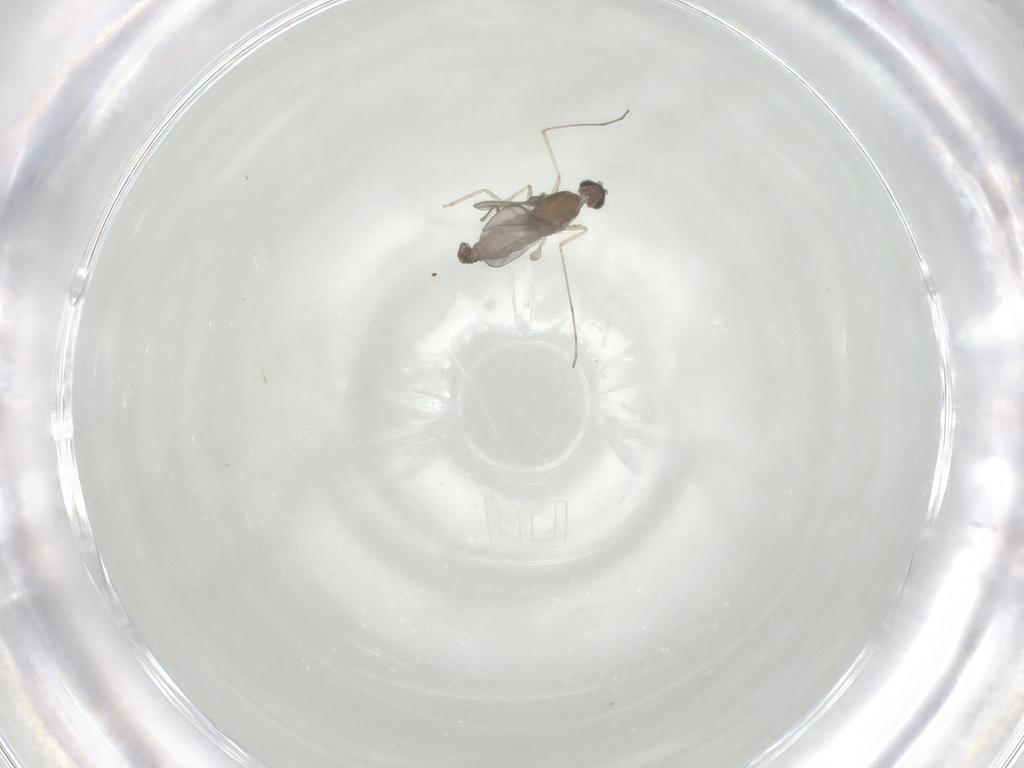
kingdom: Animalia
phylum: Arthropoda
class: Insecta
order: Diptera
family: Cecidomyiidae
